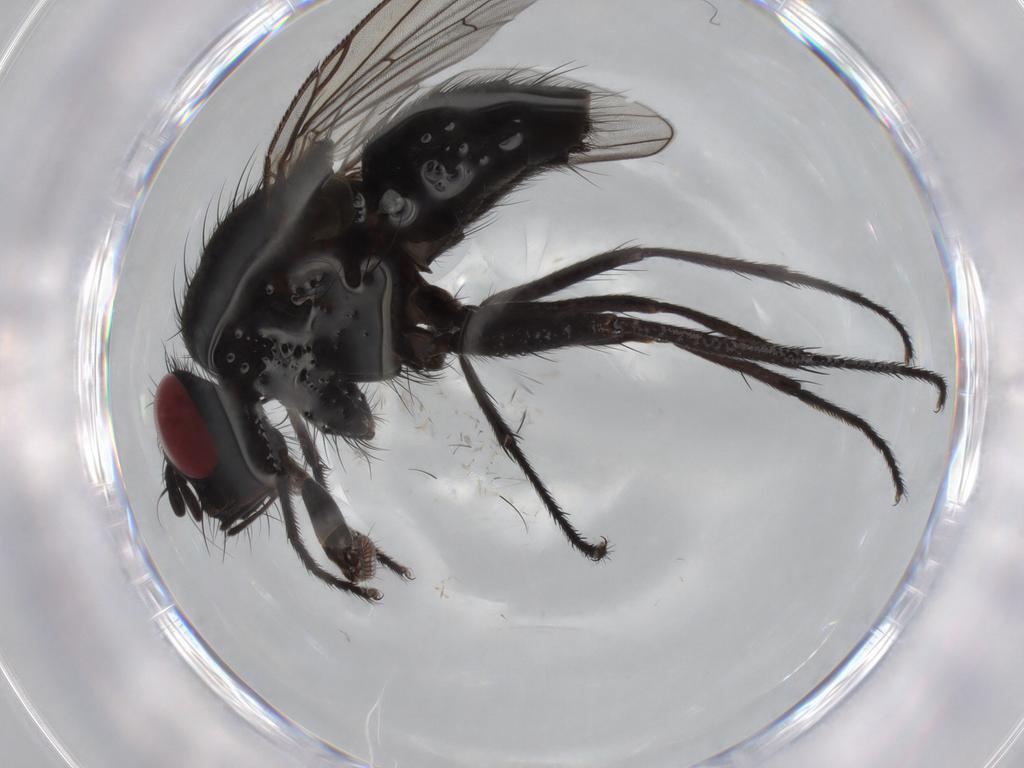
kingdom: Animalia
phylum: Arthropoda
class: Insecta
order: Diptera
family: Muscidae
